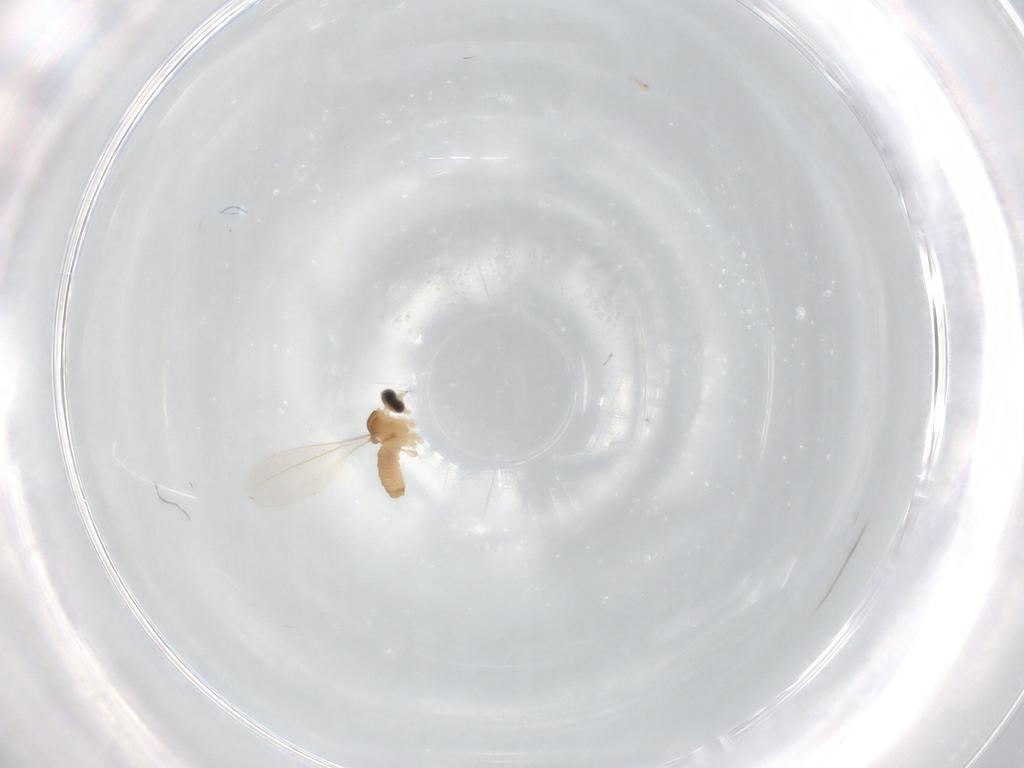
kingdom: Animalia
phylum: Arthropoda
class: Insecta
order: Diptera
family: Cecidomyiidae
